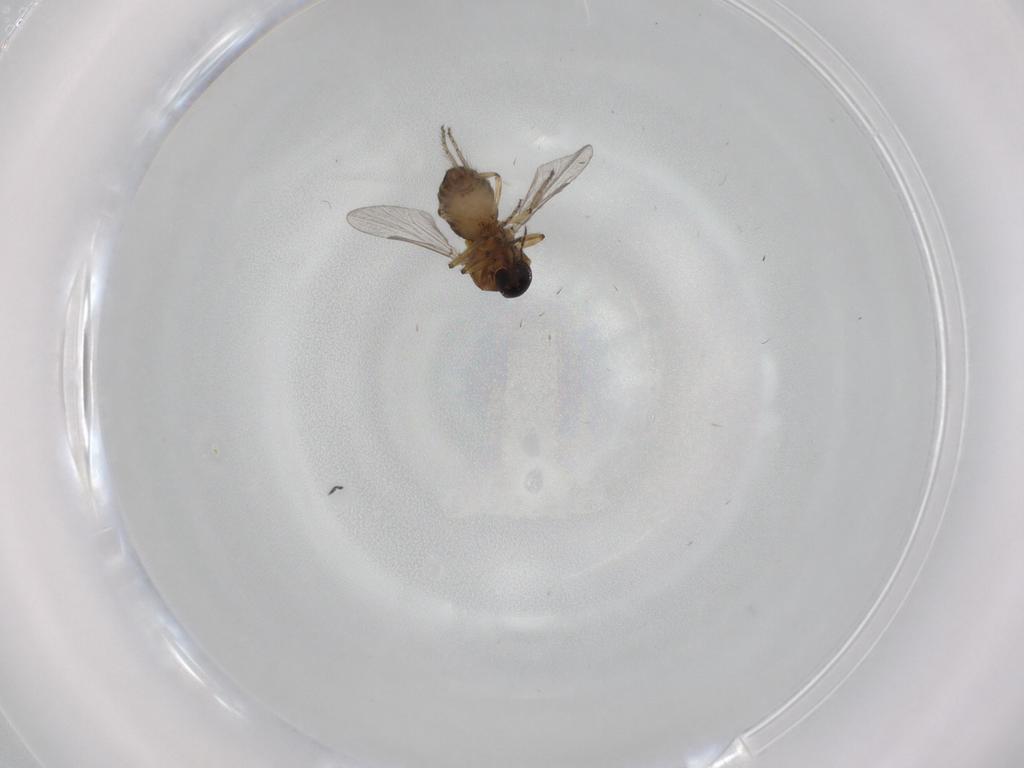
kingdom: Animalia
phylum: Arthropoda
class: Insecta
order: Diptera
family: Ceratopogonidae
